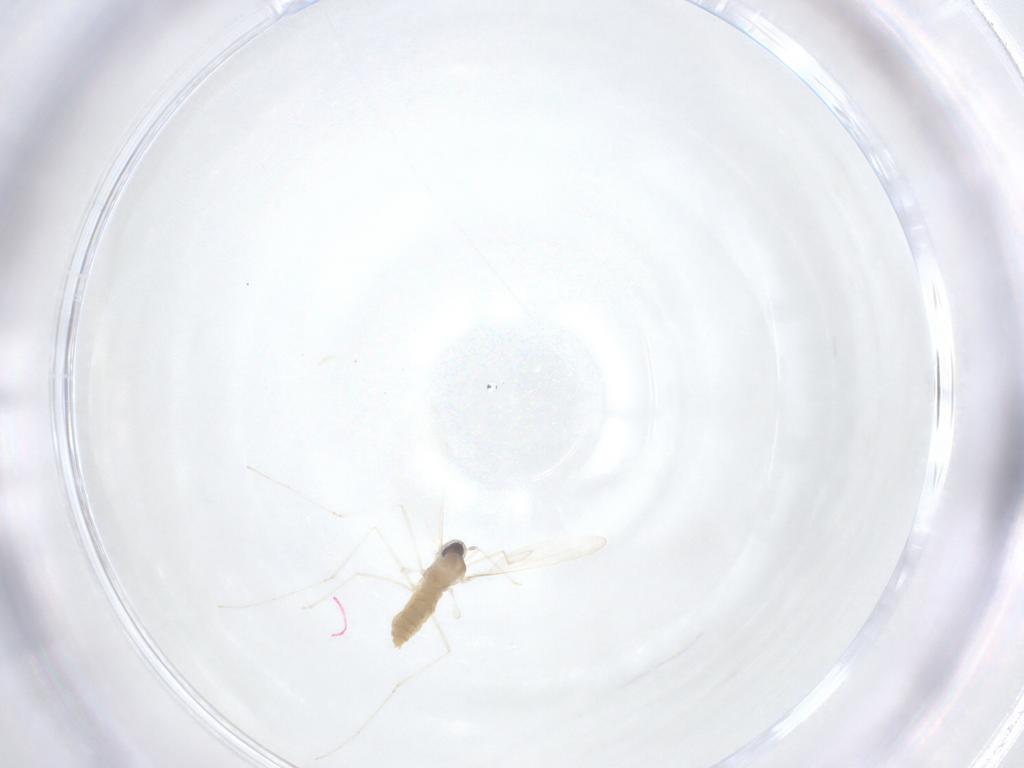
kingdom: Animalia
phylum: Arthropoda
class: Insecta
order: Diptera
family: Cecidomyiidae
